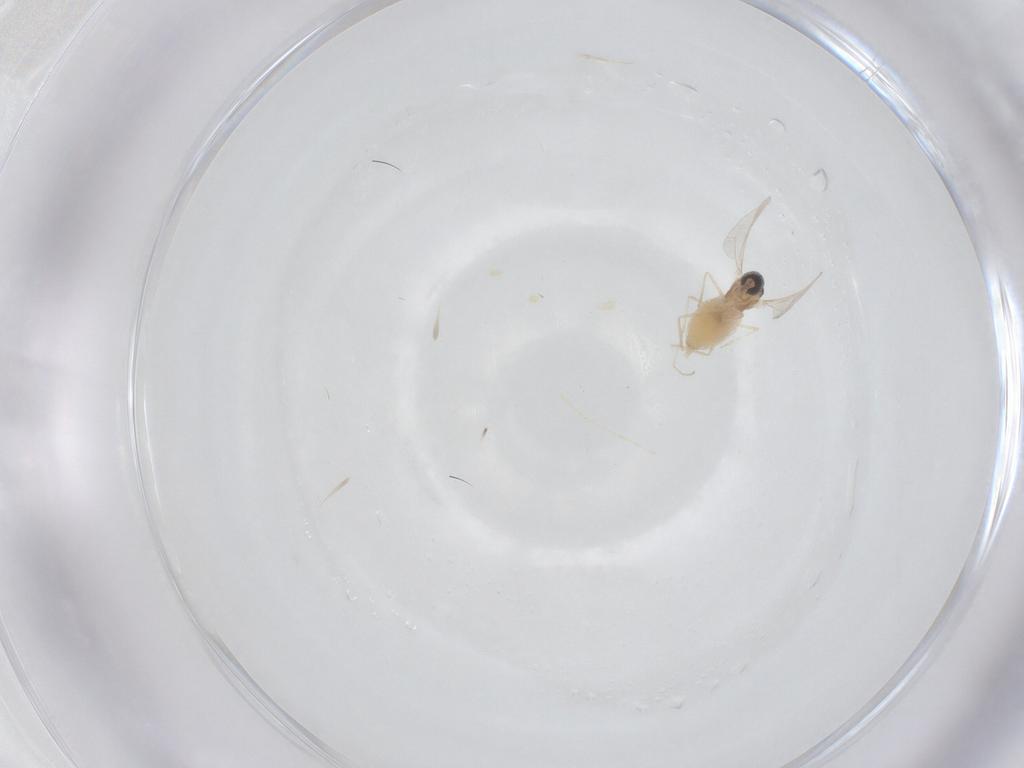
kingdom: Animalia
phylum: Arthropoda
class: Insecta
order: Diptera
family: Cecidomyiidae
